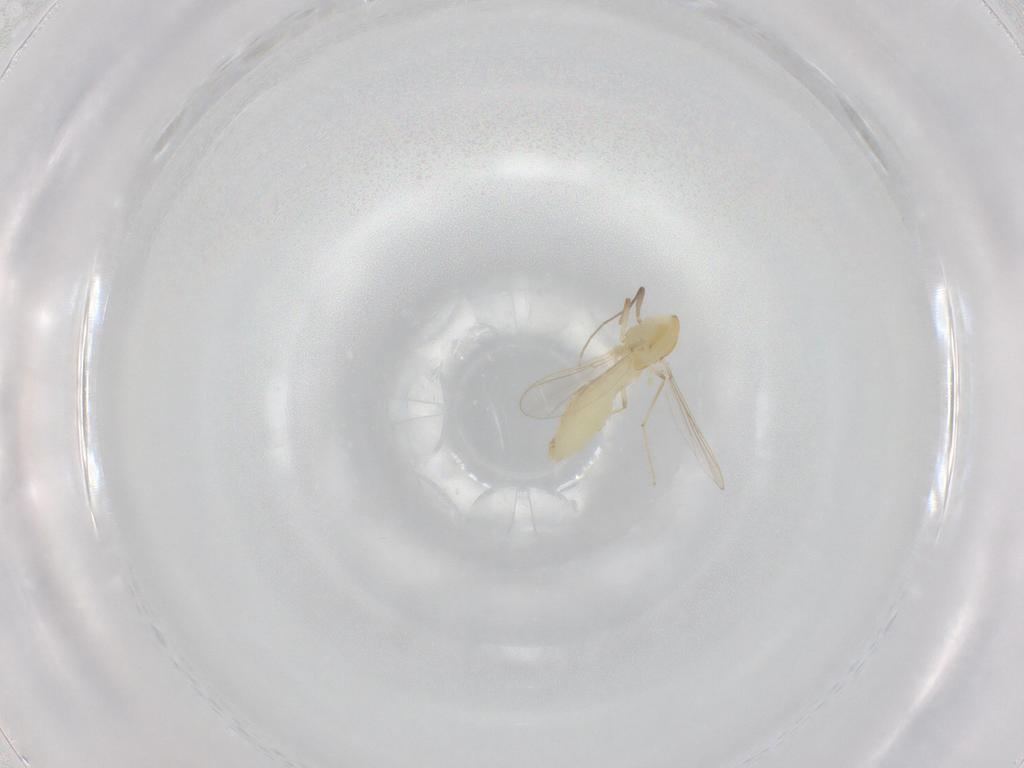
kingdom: Animalia
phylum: Arthropoda
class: Insecta
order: Diptera
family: Chironomidae
